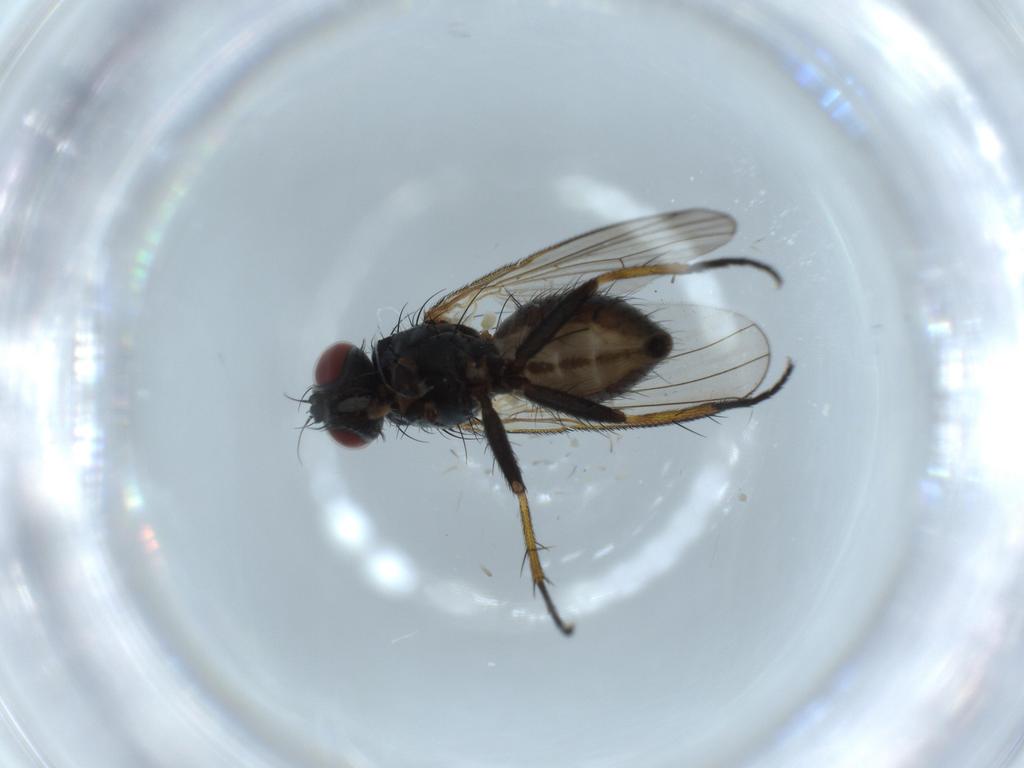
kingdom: Animalia
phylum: Arthropoda
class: Insecta
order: Diptera
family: Cecidomyiidae
